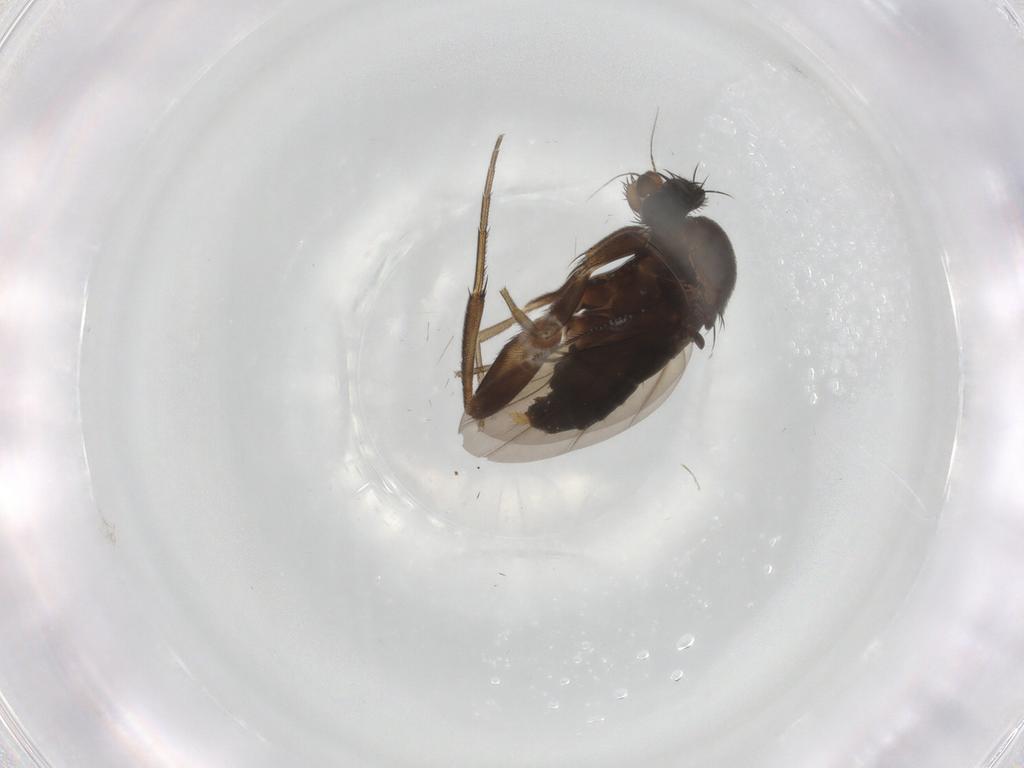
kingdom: Animalia
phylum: Arthropoda
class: Insecta
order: Diptera
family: Phoridae
